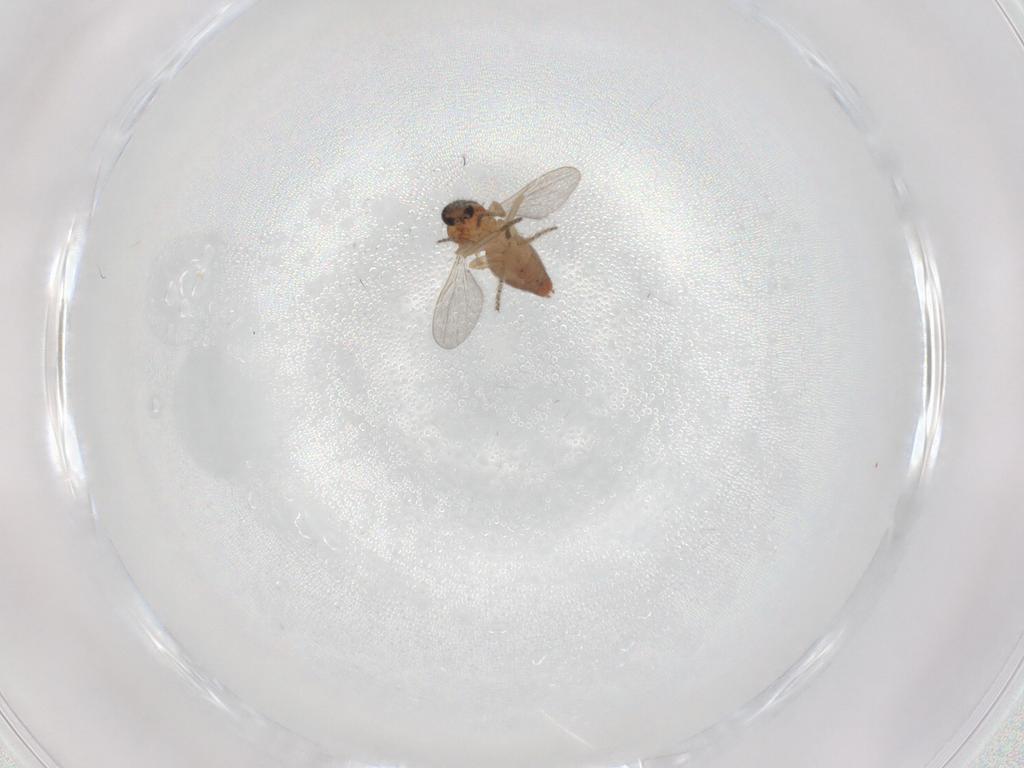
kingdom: Animalia
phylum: Arthropoda
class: Insecta
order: Diptera
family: Ceratopogonidae
